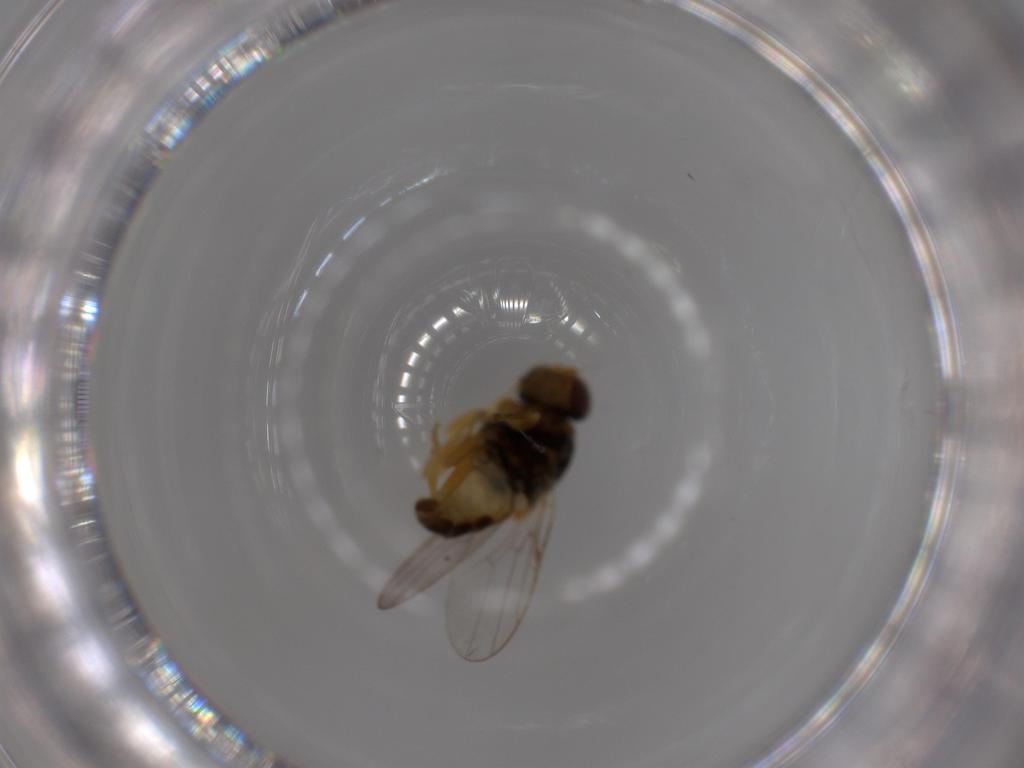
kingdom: Animalia
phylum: Arthropoda
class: Insecta
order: Diptera
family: Chloropidae
